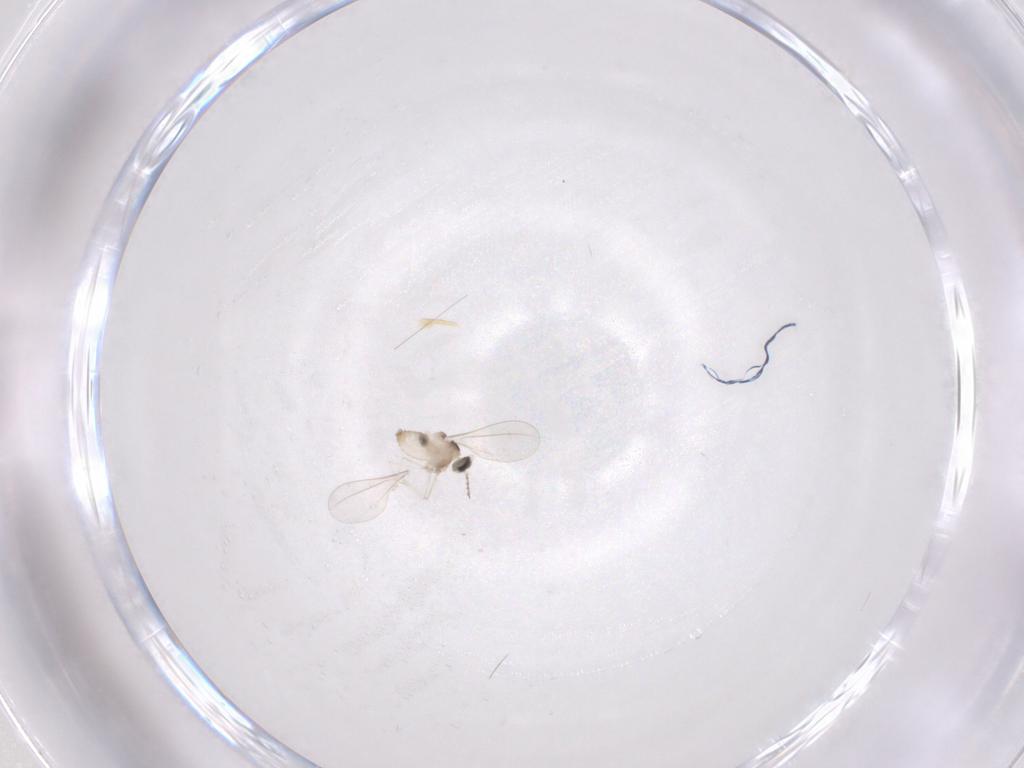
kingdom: Animalia
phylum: Arthropoda
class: Insecta
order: Diptera
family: Cecidomyiidae
